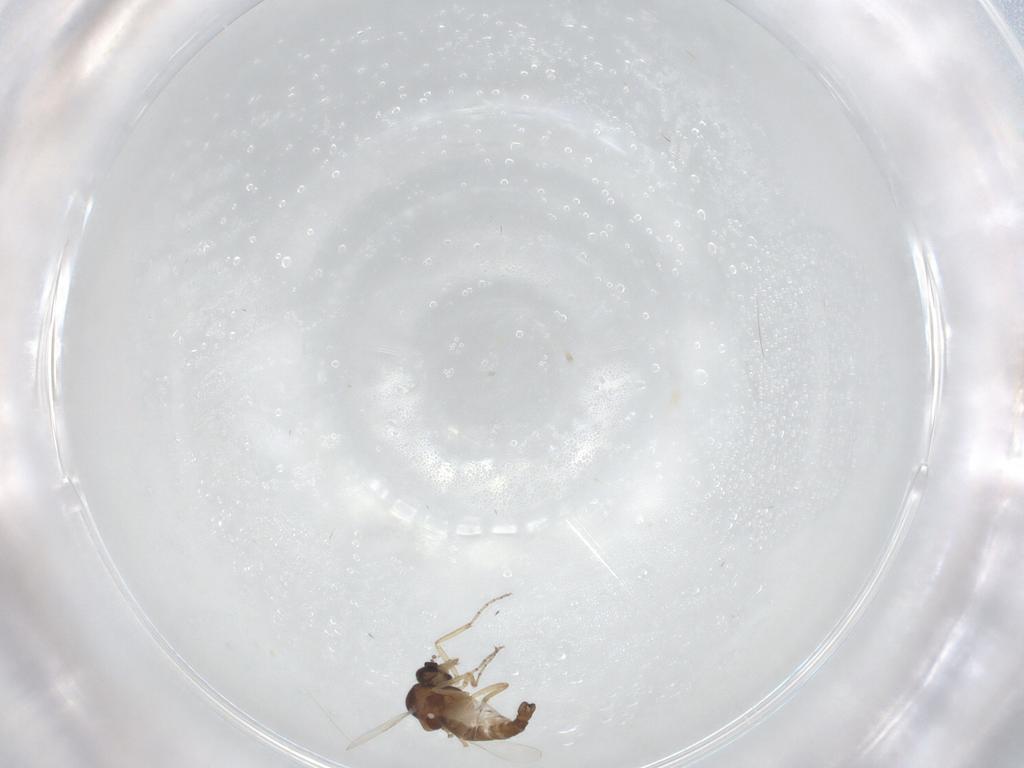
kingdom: Animalia
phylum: Arthropoda
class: Insecta
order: Diptera
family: Ceratopogonidae
